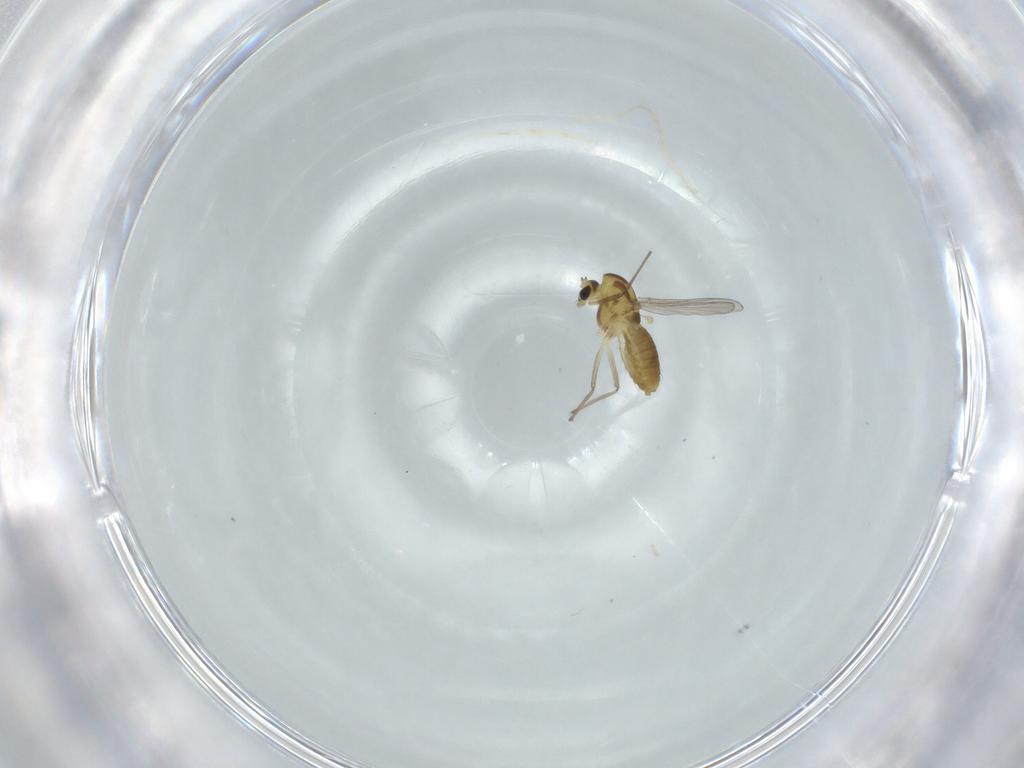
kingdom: Animalia
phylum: Arthropoda
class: Insecta
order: Diptera
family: Chironomidae
